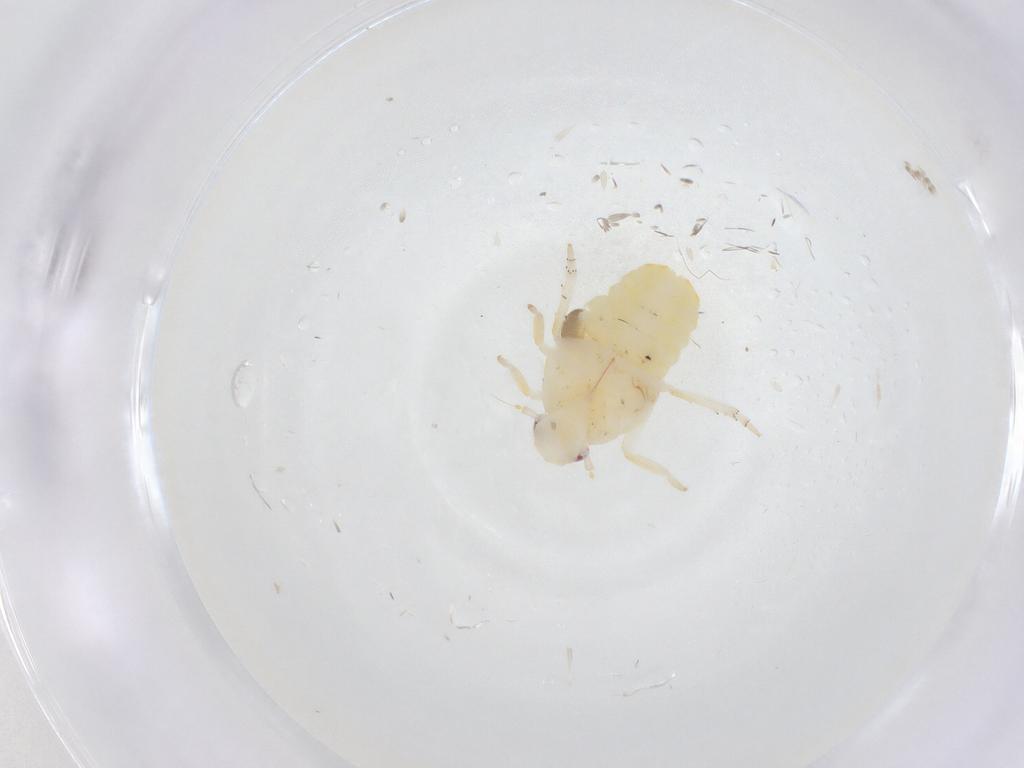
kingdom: Animalia
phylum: Arthropoda
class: Insecta
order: Hemiptera
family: Fulgoroidea_incertae_sedis
